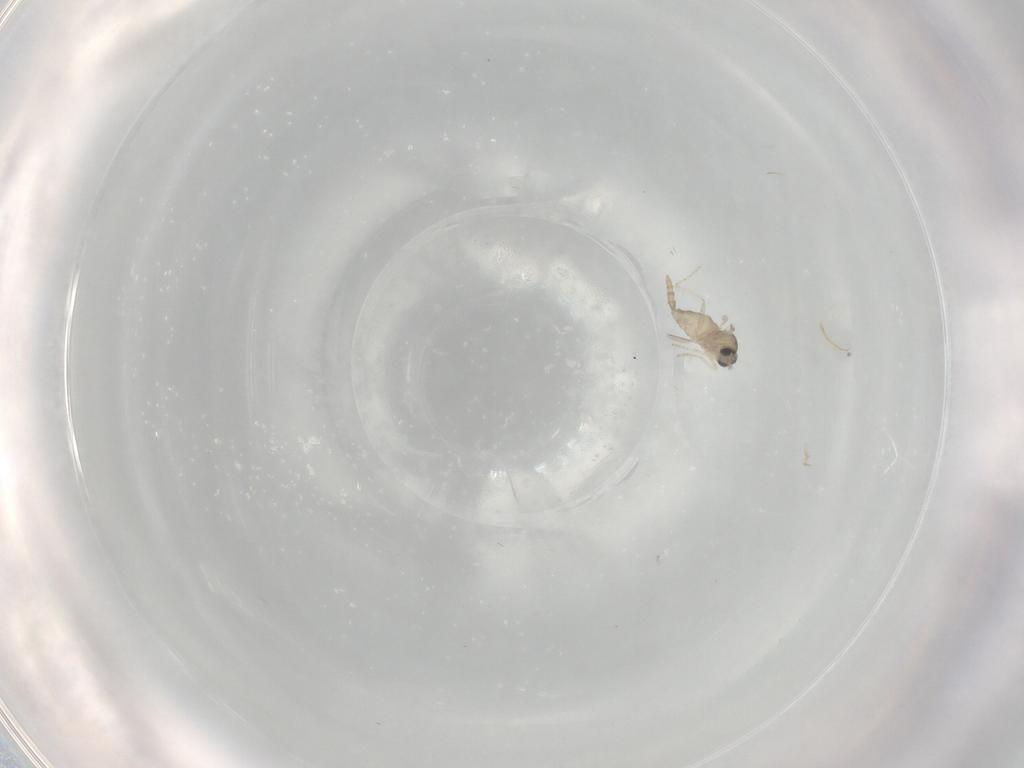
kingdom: Animalia
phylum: Arthropoda
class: Insecta
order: Diptera
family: Cecidomyiidae
